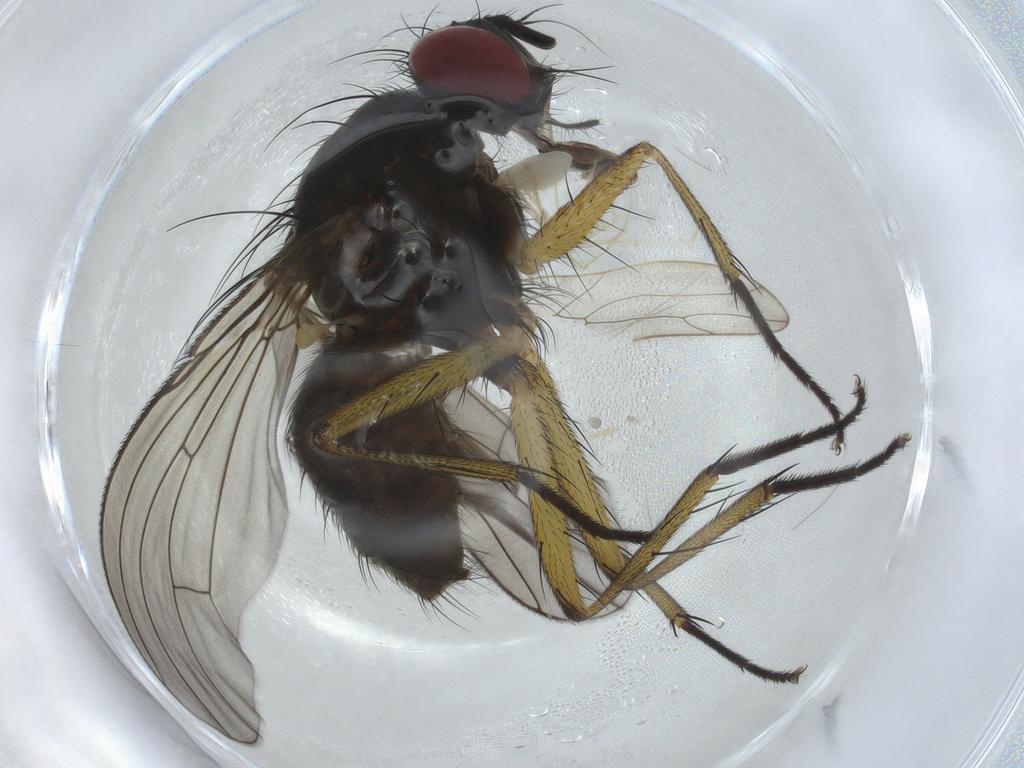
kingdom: Animalia
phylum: Arthropoda
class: Insecta
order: Diptera
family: Muscidae
